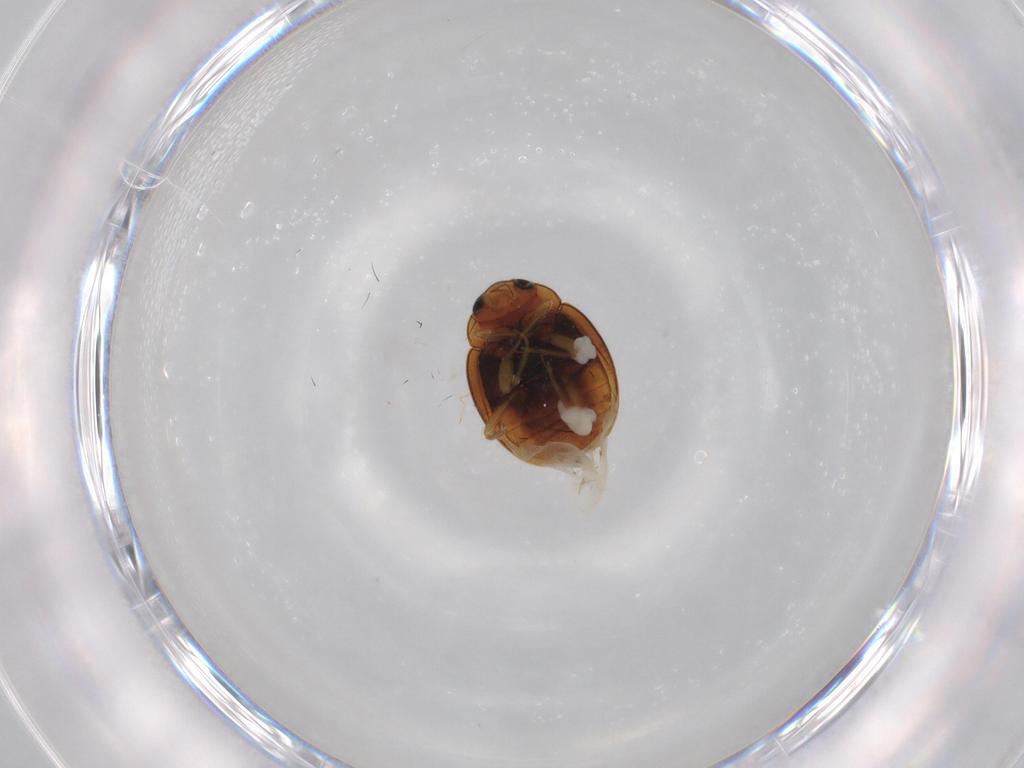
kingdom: Animalia
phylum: Arthropoda
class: Insecta
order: Coleoptera
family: Coccinellidae
